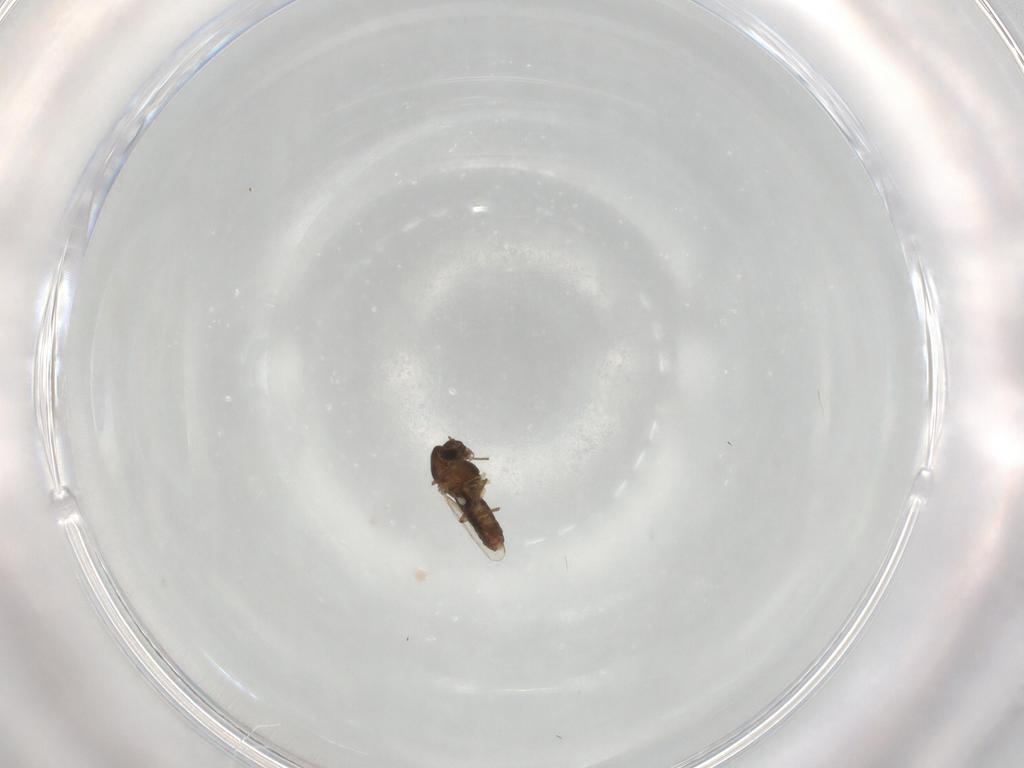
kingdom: Animalia
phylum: Arthropoda
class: Insecta
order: Diptera
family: Chironomidae
